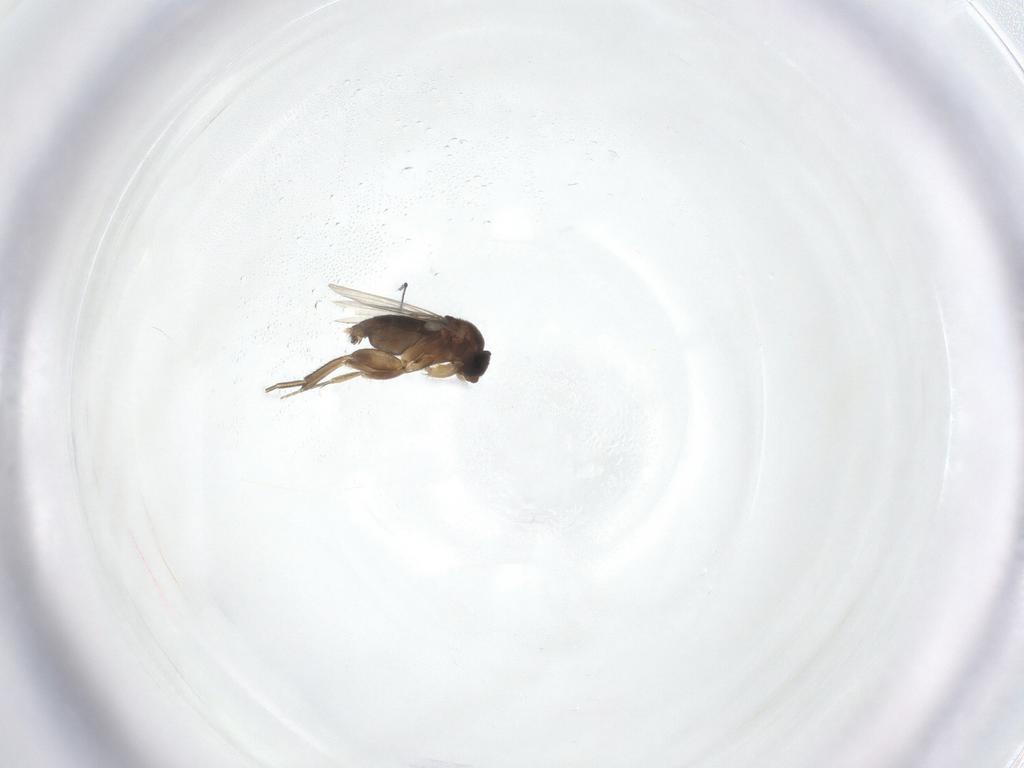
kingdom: Animalia
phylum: Arthropoda
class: Insecta
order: Diptera
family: Phoridae
